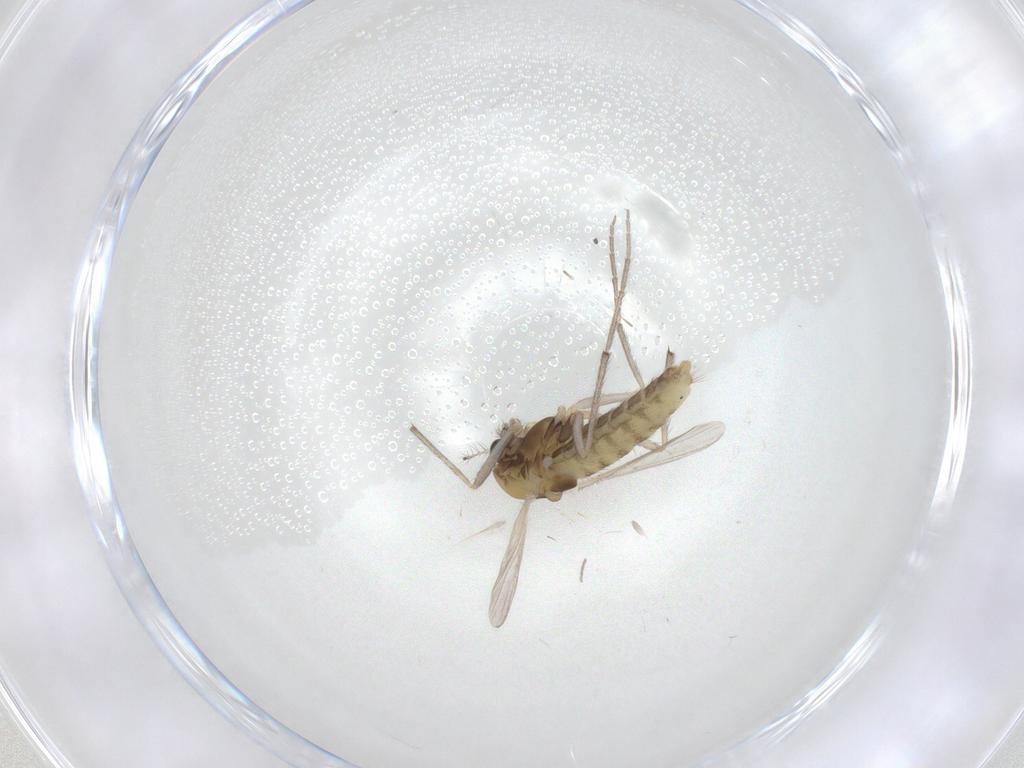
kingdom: Animalia
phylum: Arthropoda
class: Insecta
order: Diptera
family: Chironomidae
